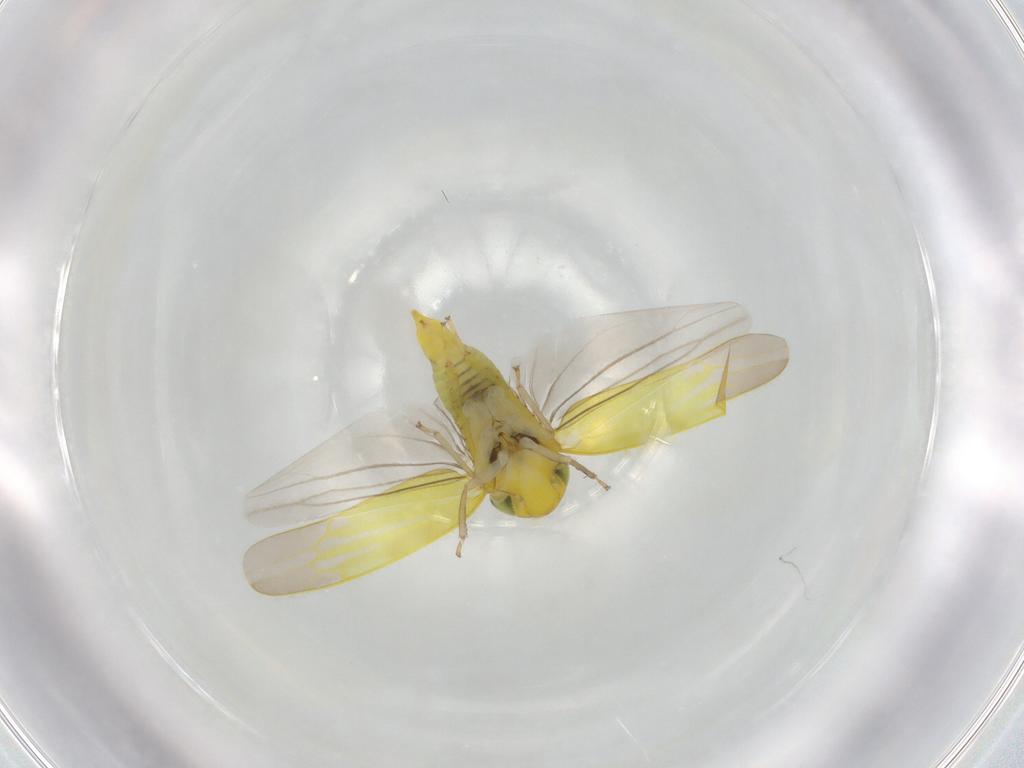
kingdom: Animalia
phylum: Arthropoda
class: Insecta
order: Hemiptera
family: Cicadellidae
